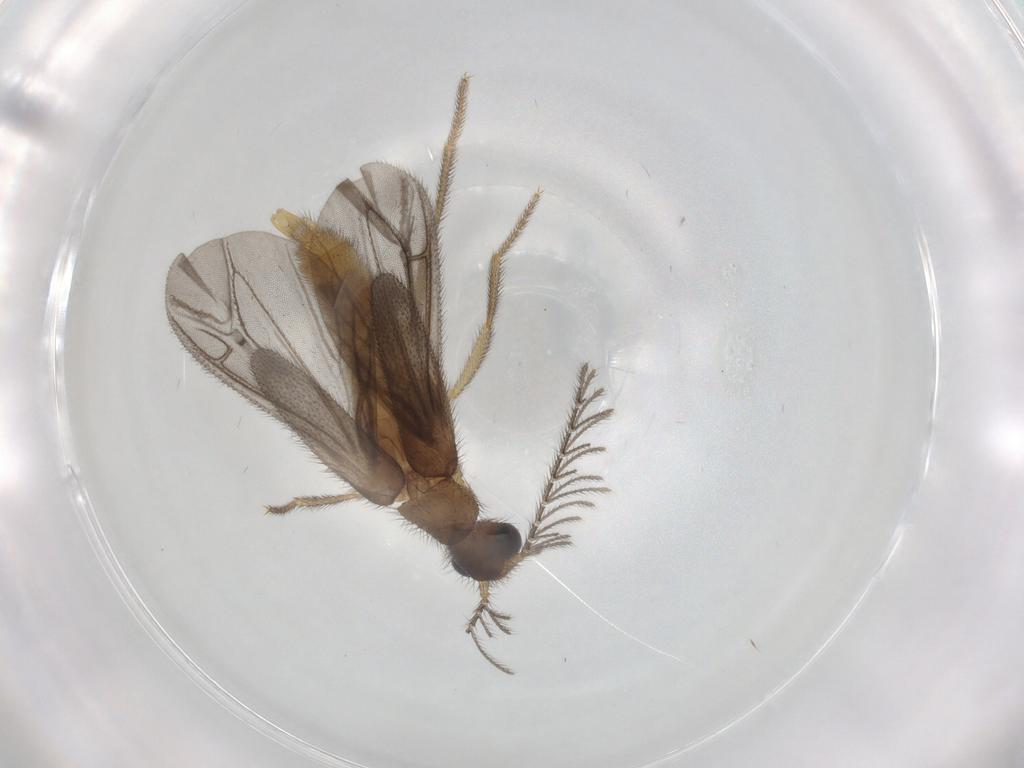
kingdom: Animalia
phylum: Arthropoda
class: Insecta
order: Coleoptera
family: Phengodidae
